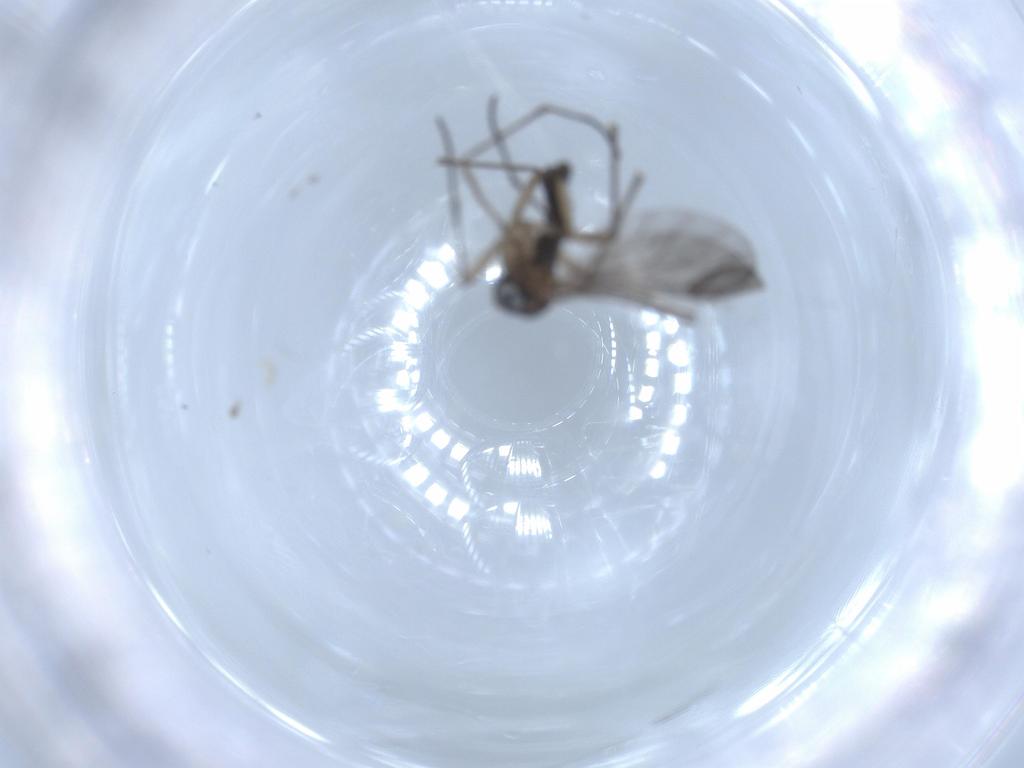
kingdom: Animalia
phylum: Arthropoda
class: Insecta
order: Diptera
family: Sciaridae
